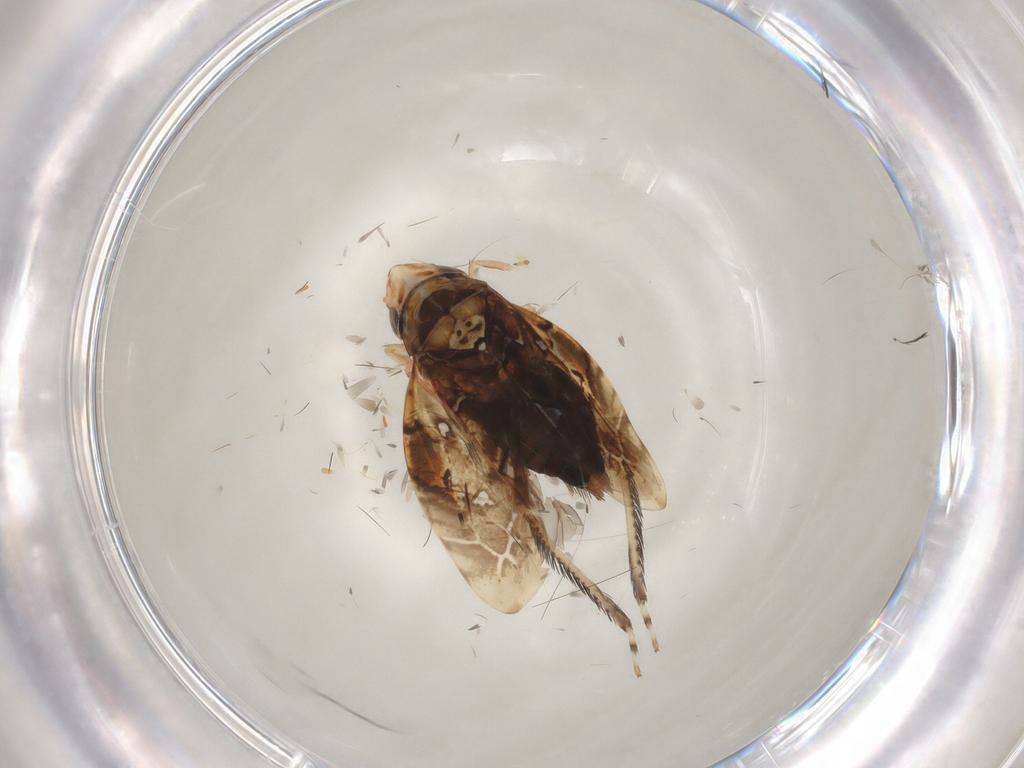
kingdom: Animalia
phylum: Arthropoda
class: Insecta
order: Hemiptera
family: Cicadellidae
